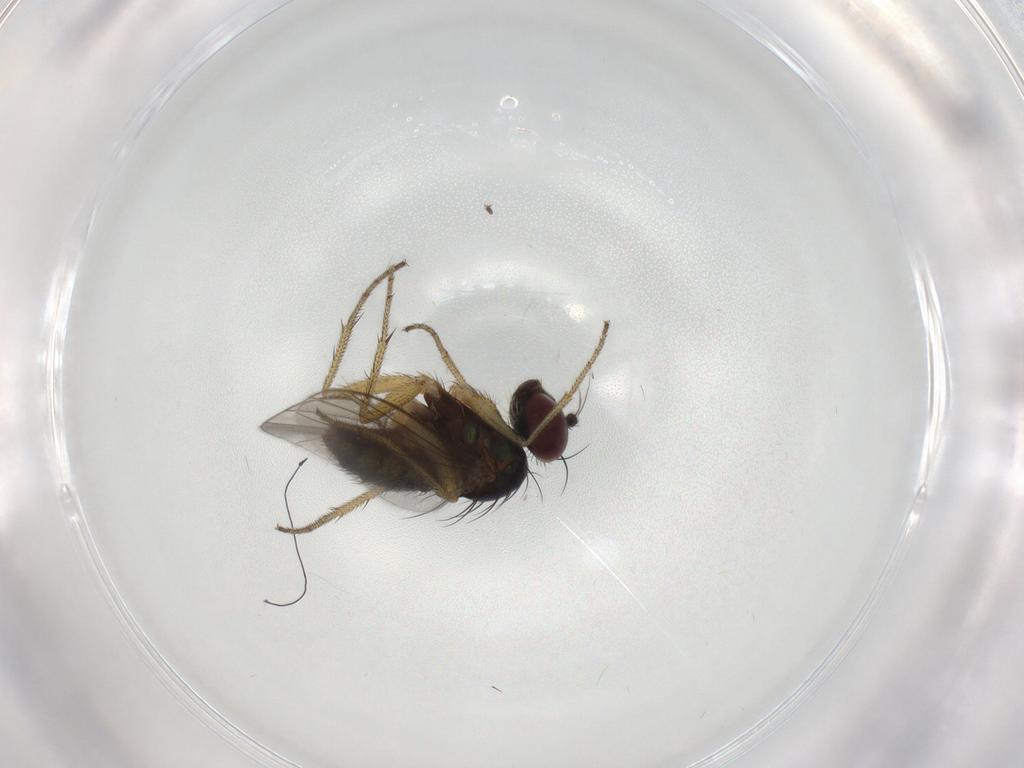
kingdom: Animalia
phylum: Arthropoda
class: Insecta
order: Diptera
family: Dolichopodidae
